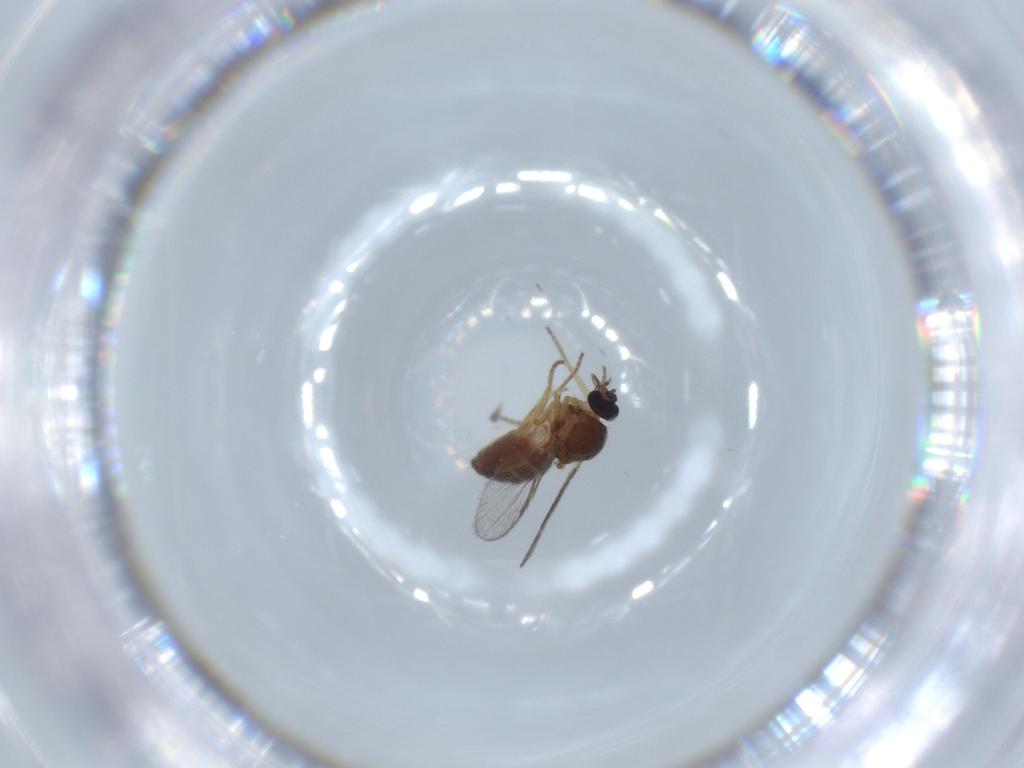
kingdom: Animalia
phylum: Arthropoda
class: Insecta
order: Diptera
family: Ceratopogonidae
